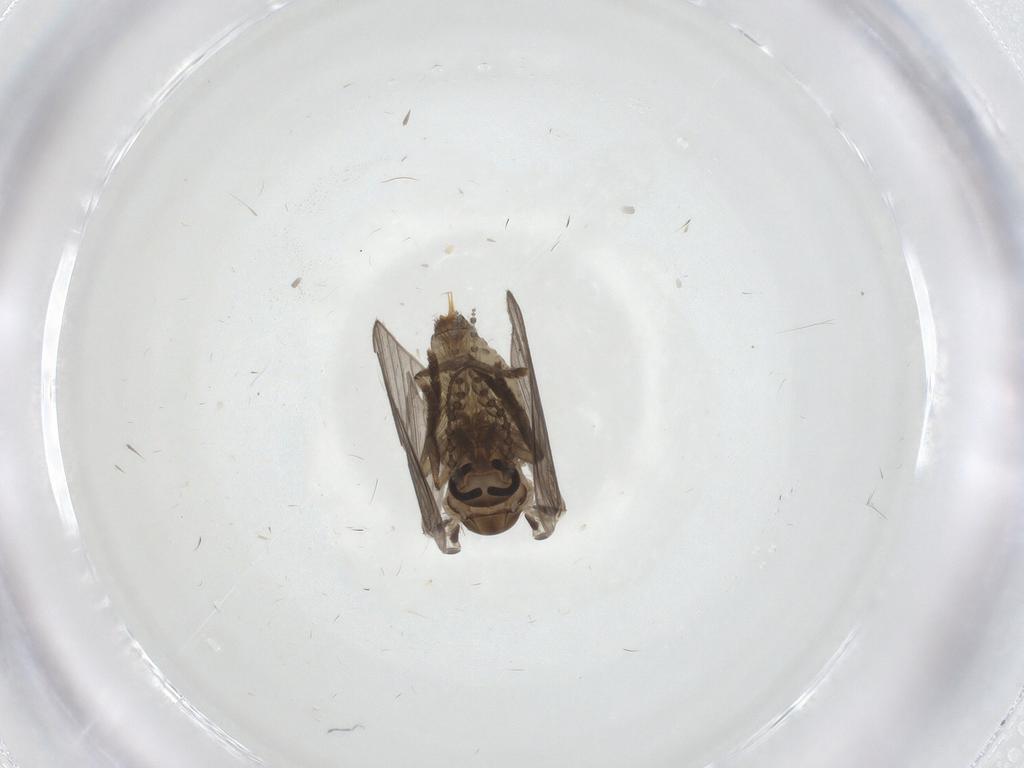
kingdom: Animalia
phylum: Arthropoda
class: Insecta
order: Diptera
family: Psychodidae
